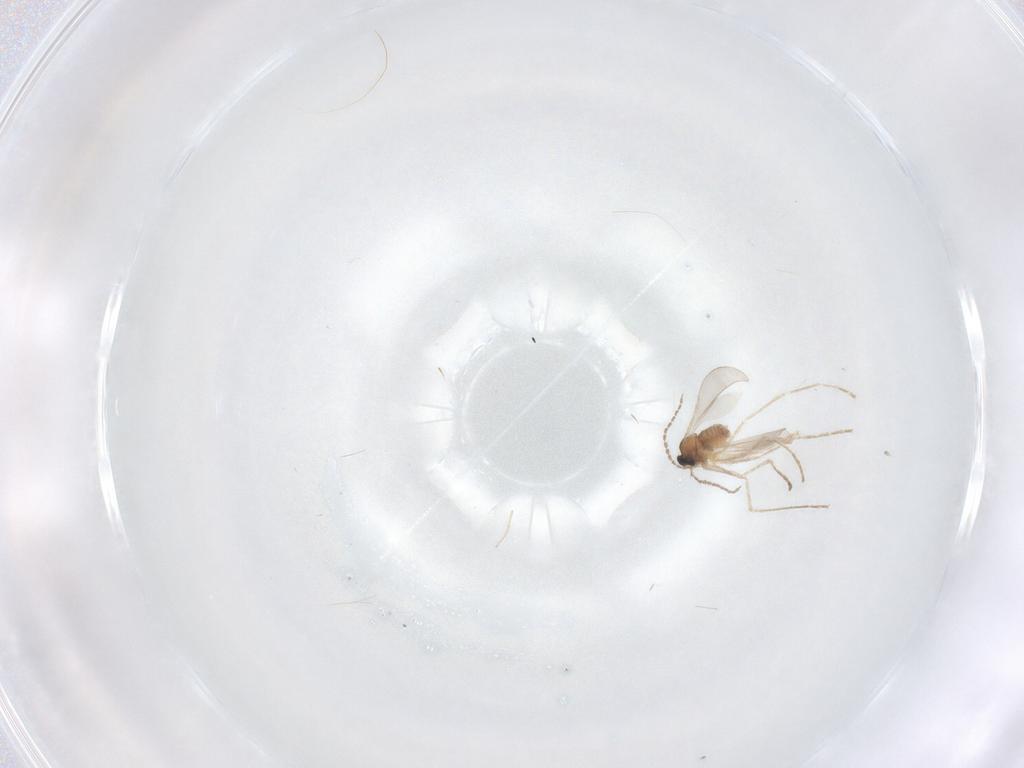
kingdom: Animalia
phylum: Arthropoda
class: Insecta
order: Diptera
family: Cecidomyiidae
